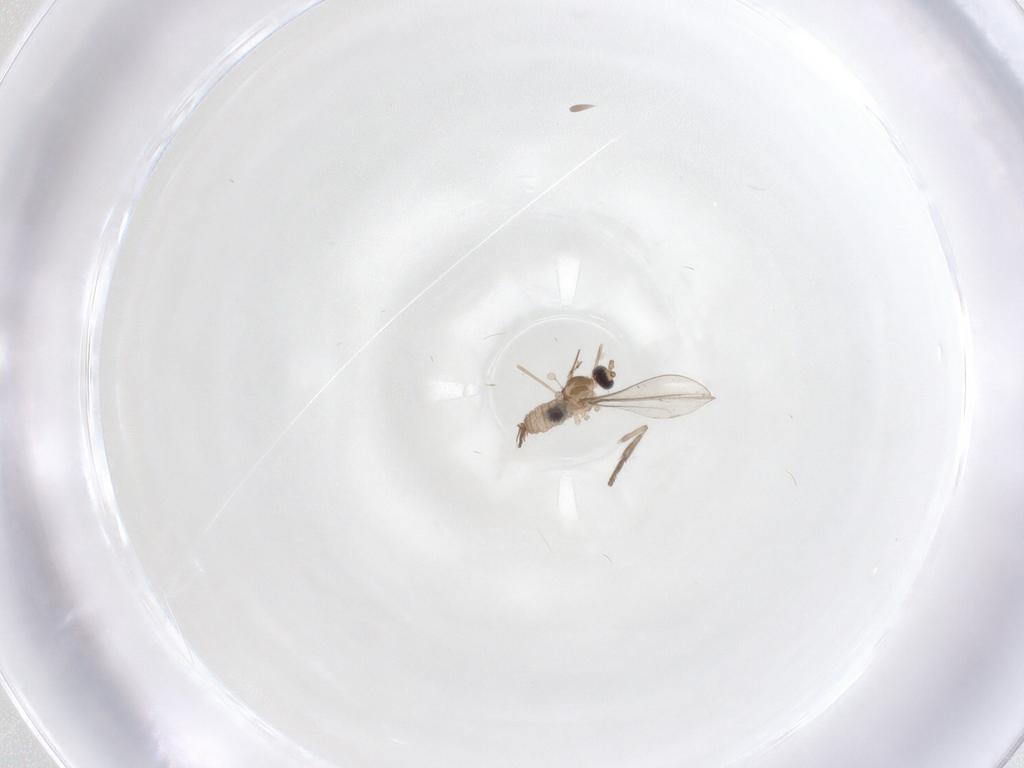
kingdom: Animalia
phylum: Arthropoda
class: Insecta
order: Diptera
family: Cecidomyiidae
